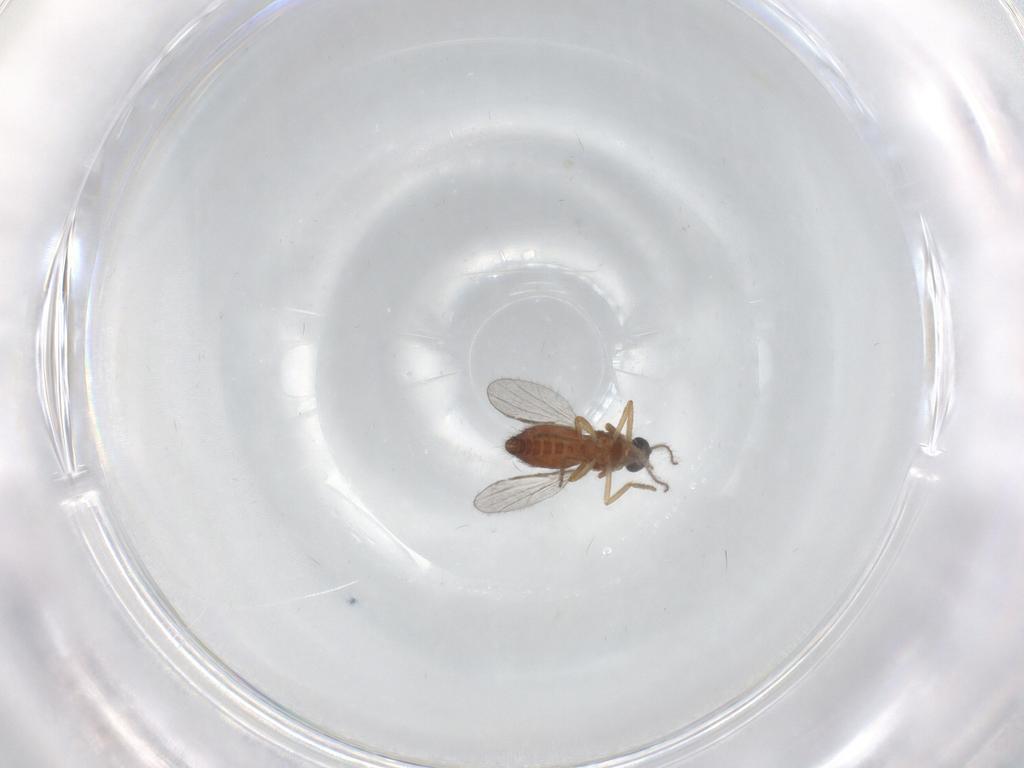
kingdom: Animalia
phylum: Arthropoda
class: Insecta
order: Diptera
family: Ceratopogonidae
